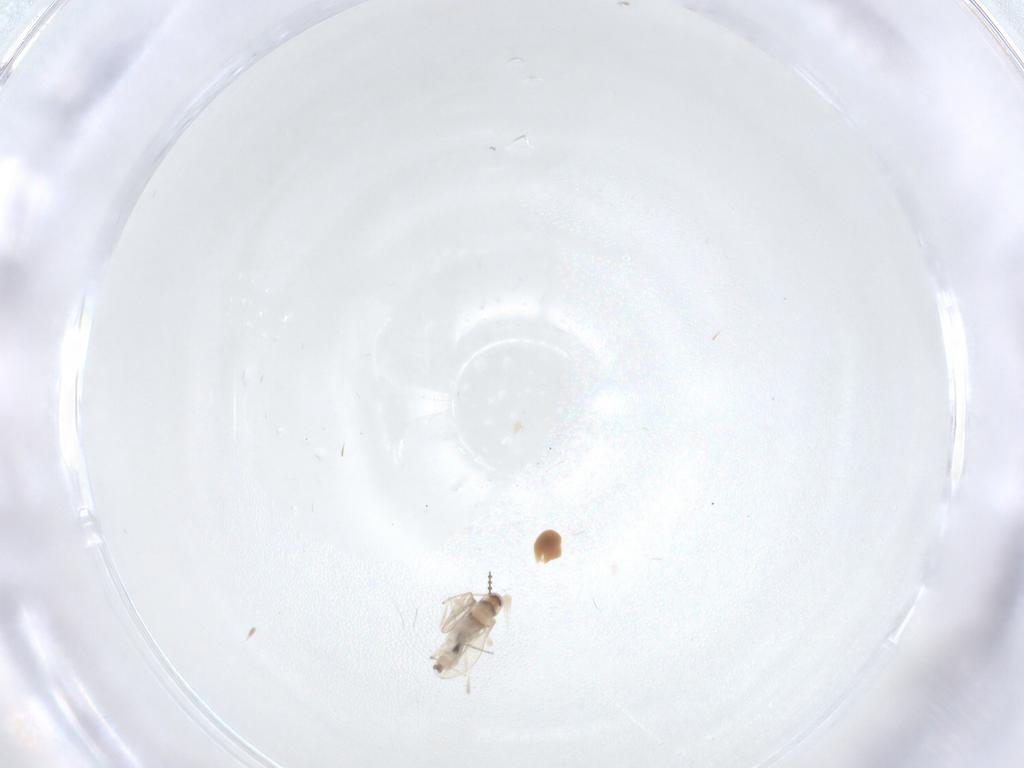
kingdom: Animalia
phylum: Arthropoda
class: Insecta
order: Diptera
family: Cecidomyiidae
